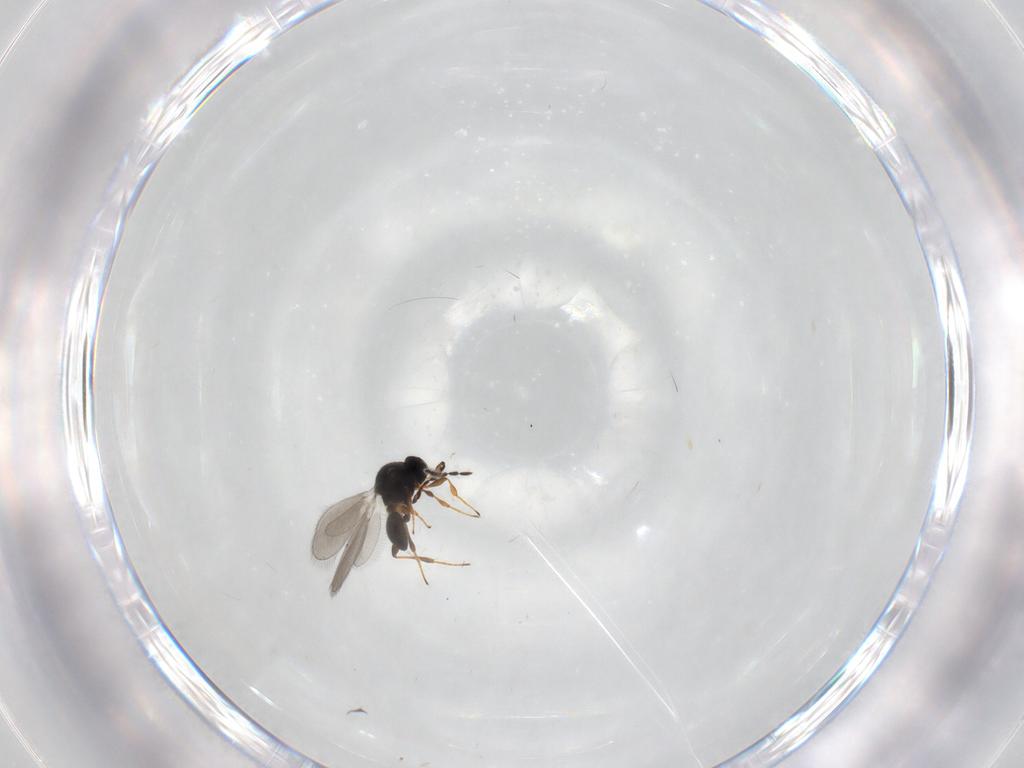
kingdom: Animalia
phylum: Arthropoda
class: Insecta
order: Hymenoptera
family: Platygastridae
